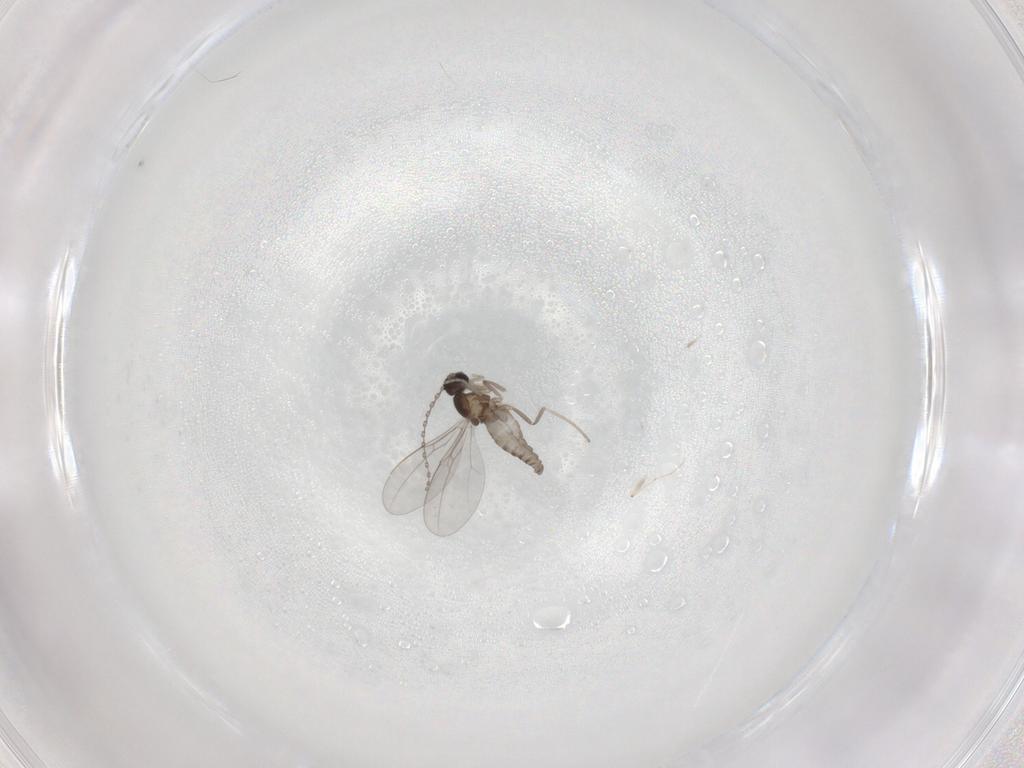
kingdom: Animalia
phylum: Arthropoda
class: Insecta
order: Diptera
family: Cecidomyiidae
